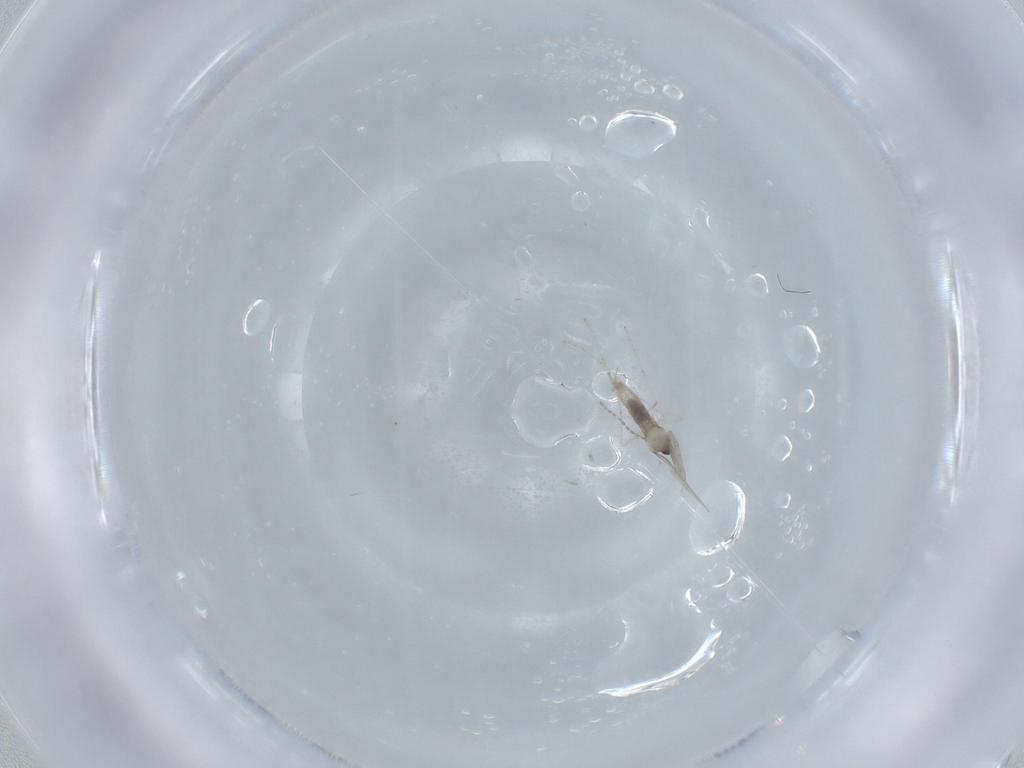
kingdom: Animalia
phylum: Arthropoda
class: Insecta
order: Diptera
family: Cecidomyiidae
